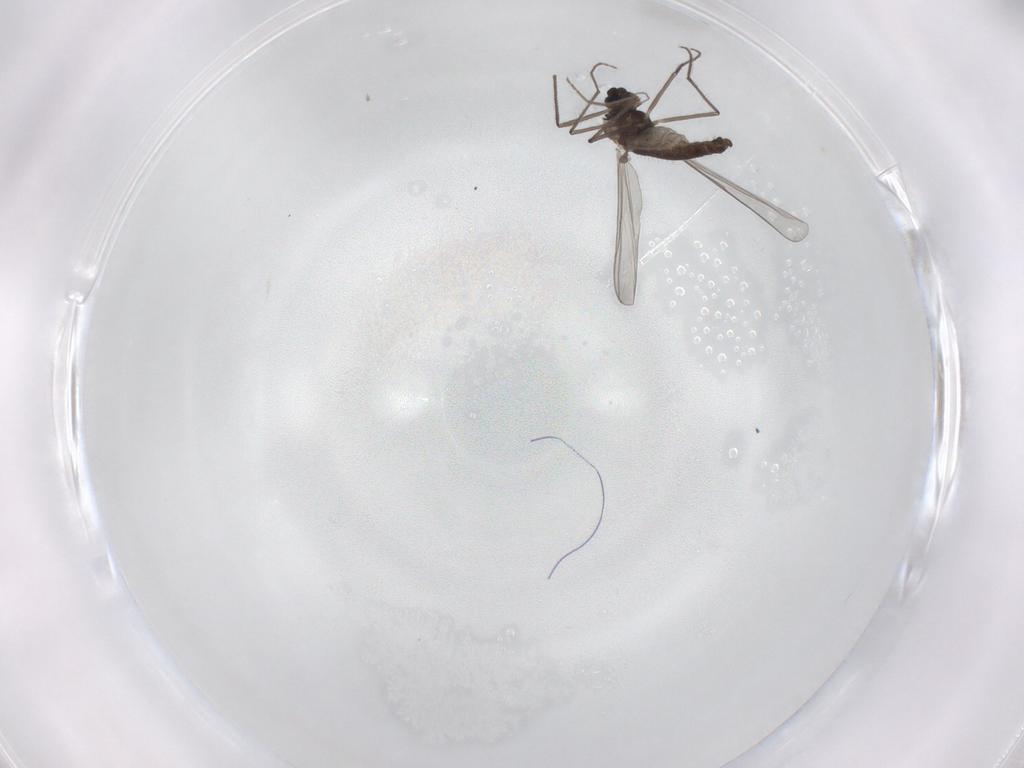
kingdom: Animalia
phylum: Arthropoda
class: Insecta
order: Diptera
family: Chironomidae
